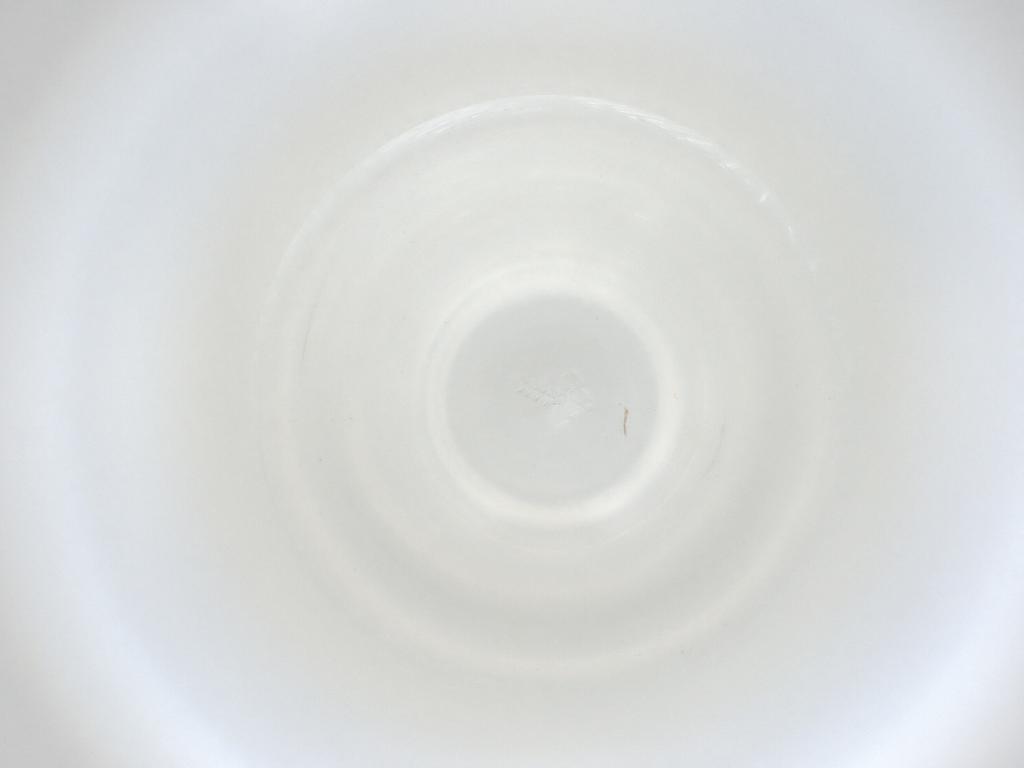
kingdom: Animalia
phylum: Arthropoda
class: Insecta
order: Diptera
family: Cecidomyiidae
